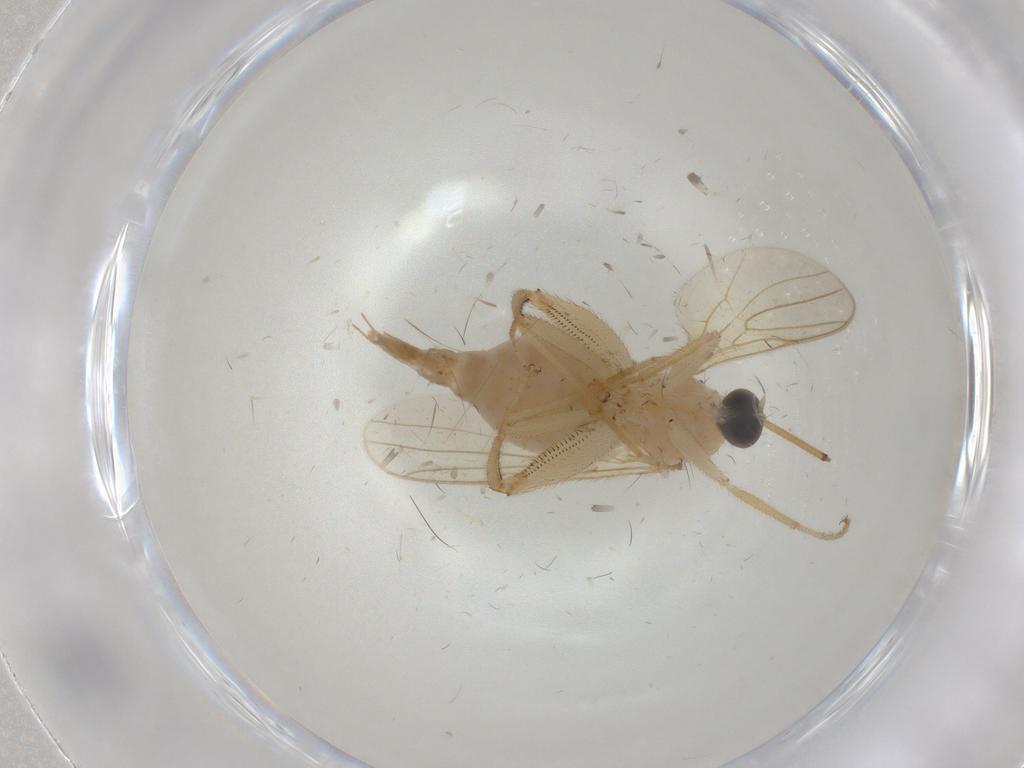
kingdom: Animalia
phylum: Arthropoda
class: Insecta
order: Diptera
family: Hybotidae
